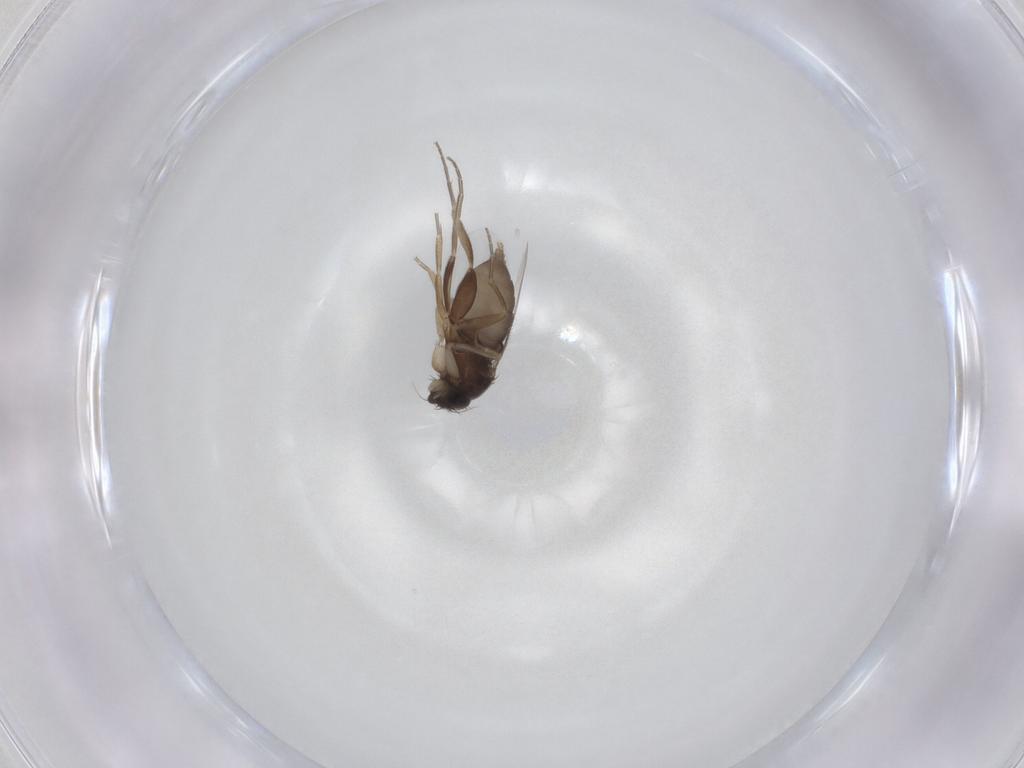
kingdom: Animalia
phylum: Arthropoda
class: Insecta
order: Diptera
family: Phoridae
